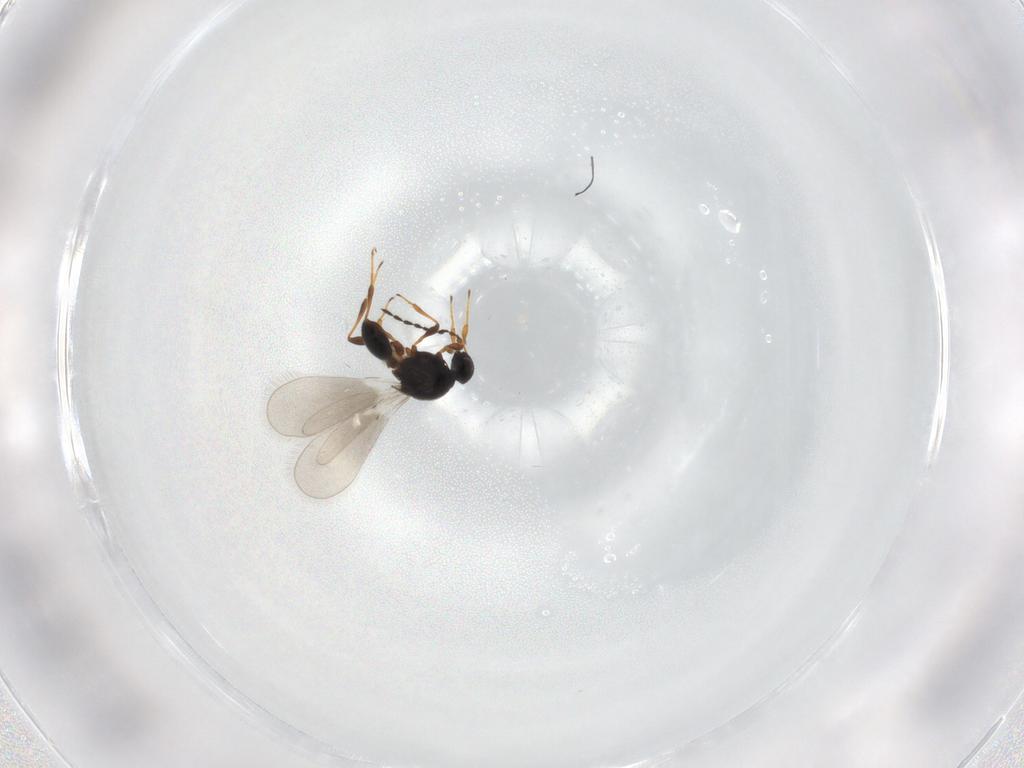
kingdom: Animalia
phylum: Arthropoda
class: Insecta
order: Hymenoptera
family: Platygastridae
